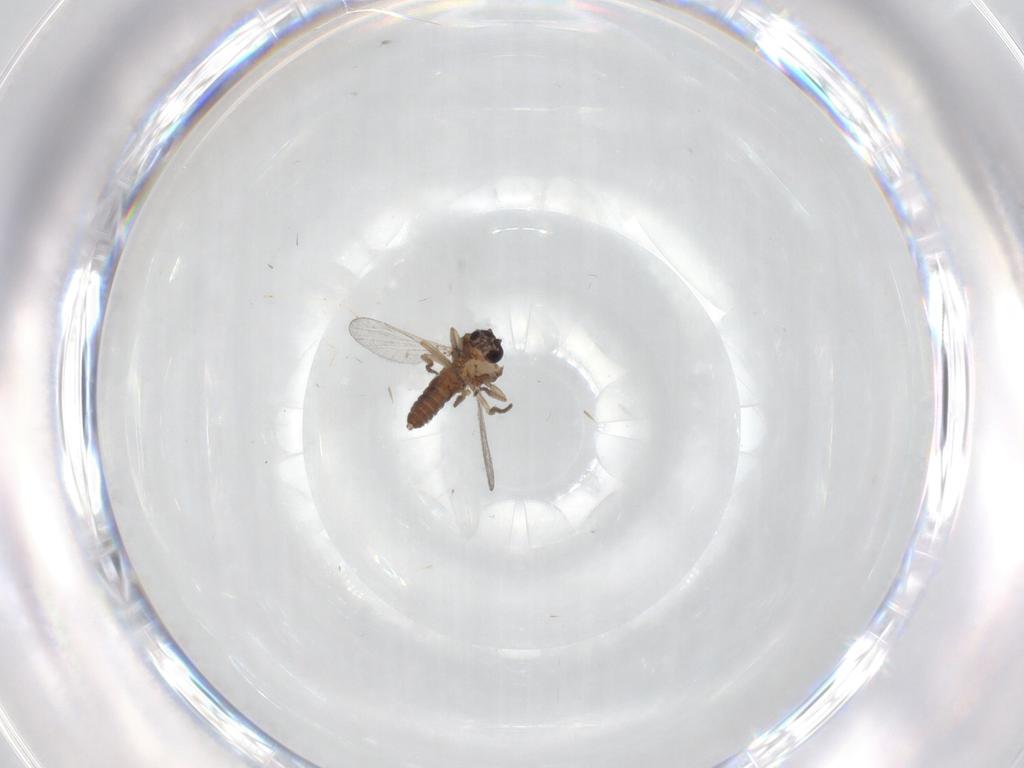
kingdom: Animalia
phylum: Arthropoda
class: Insecta
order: Diptera
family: Ceratopogonidae
